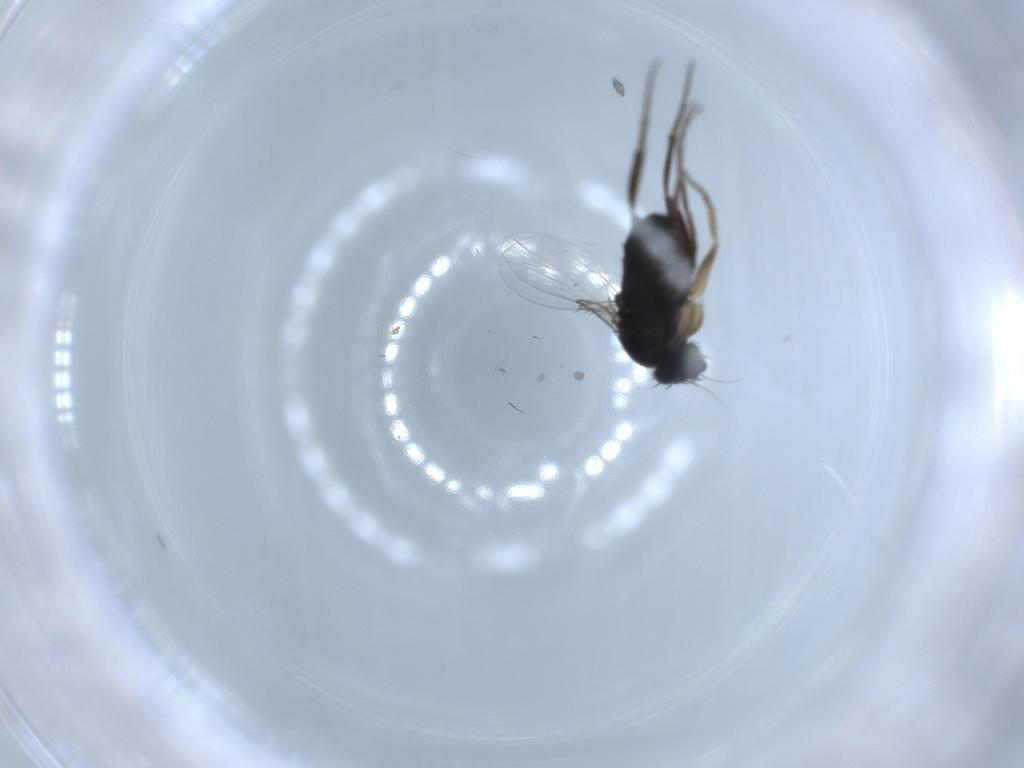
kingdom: Animalia
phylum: Arthropoda
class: Insecta
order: Diptera
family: Sciaridae
